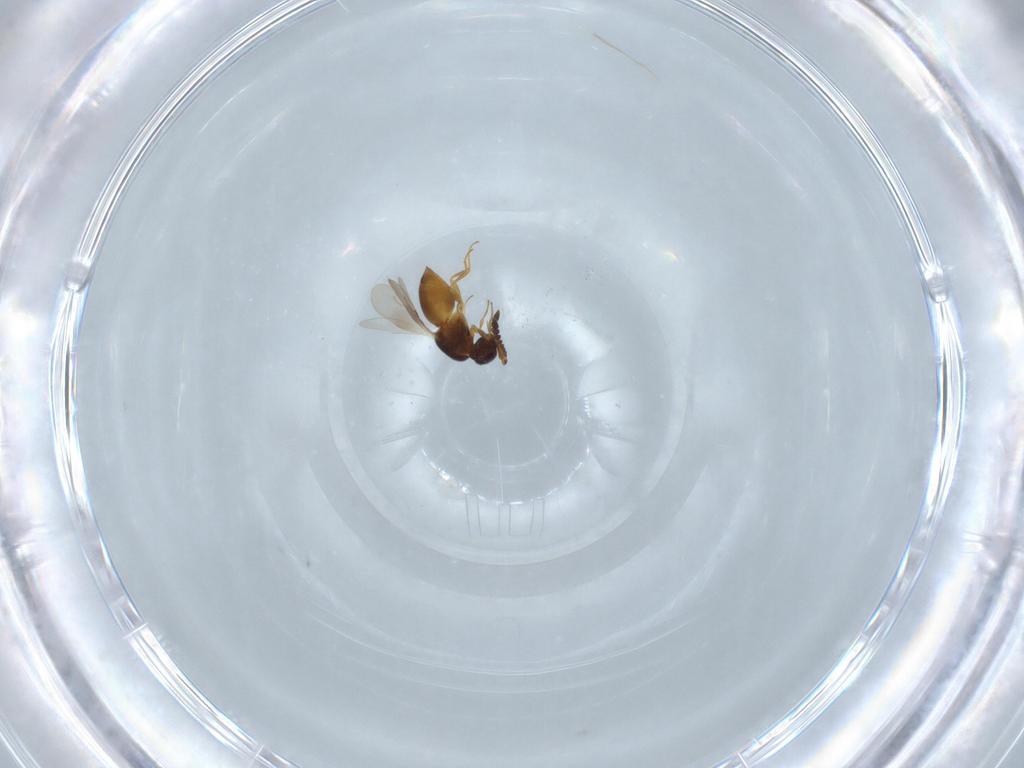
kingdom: Animalia
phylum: Arthropoda
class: Insecta
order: Hymenoptera
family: Ceraphronidae
